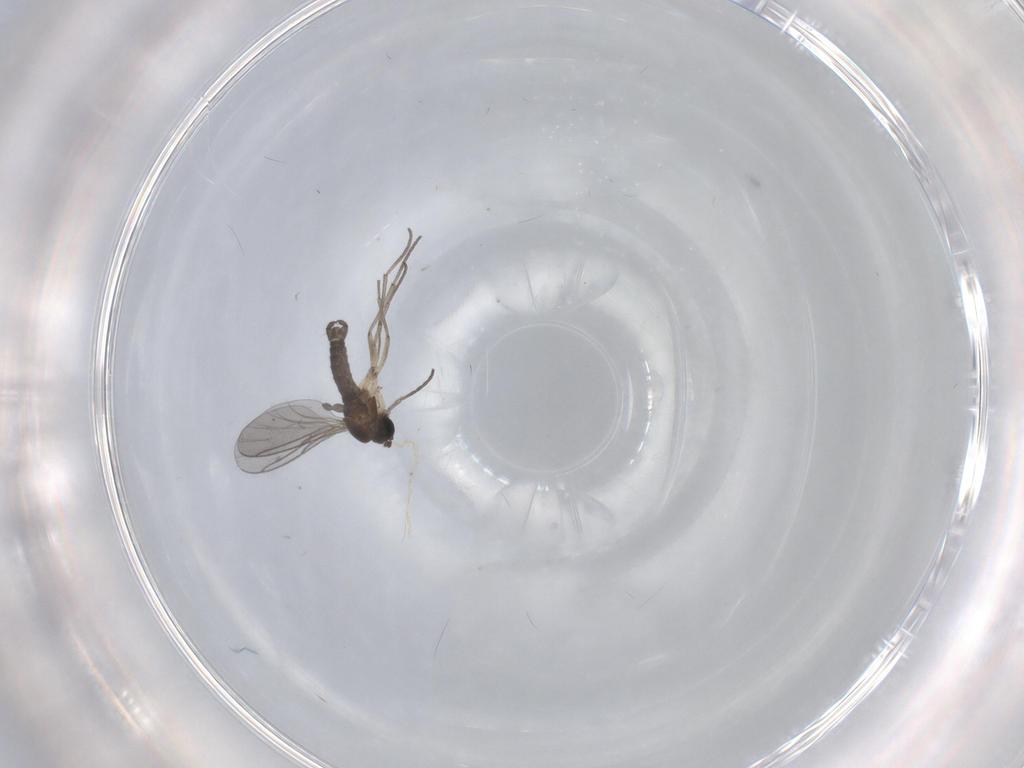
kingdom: Animalia
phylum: Arthropoda
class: Insecta
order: Diptera
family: Sciaridae
